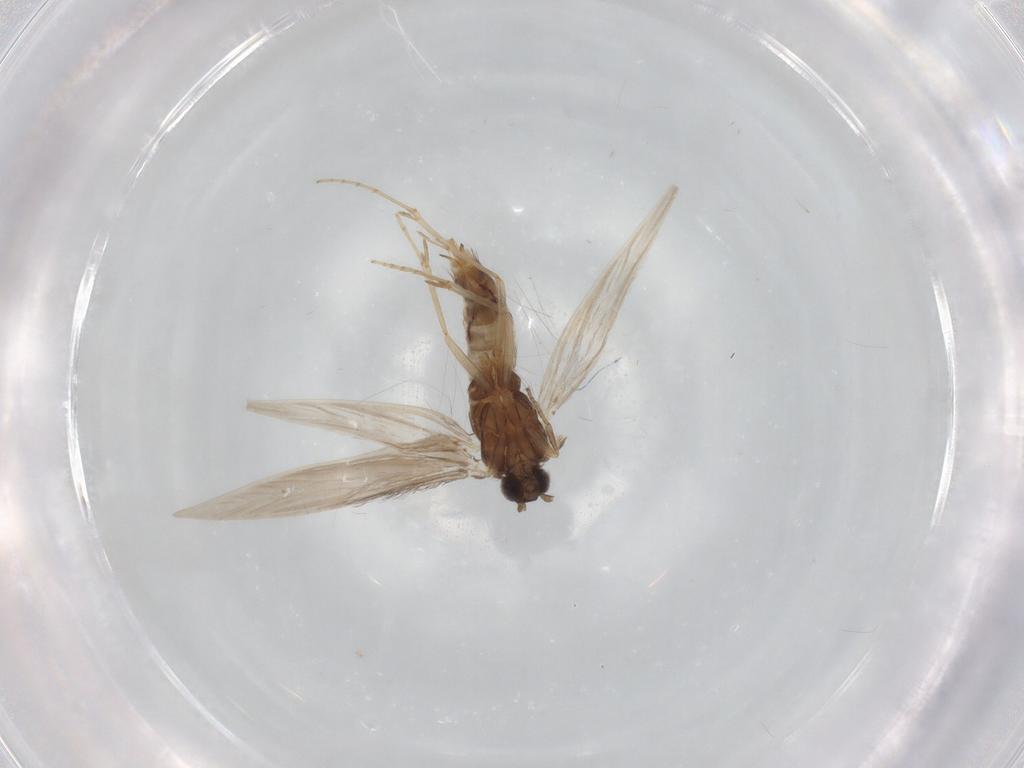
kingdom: Animalia
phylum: Arthropoda
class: Insecta
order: Trichoptera
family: Hydroptilidae
